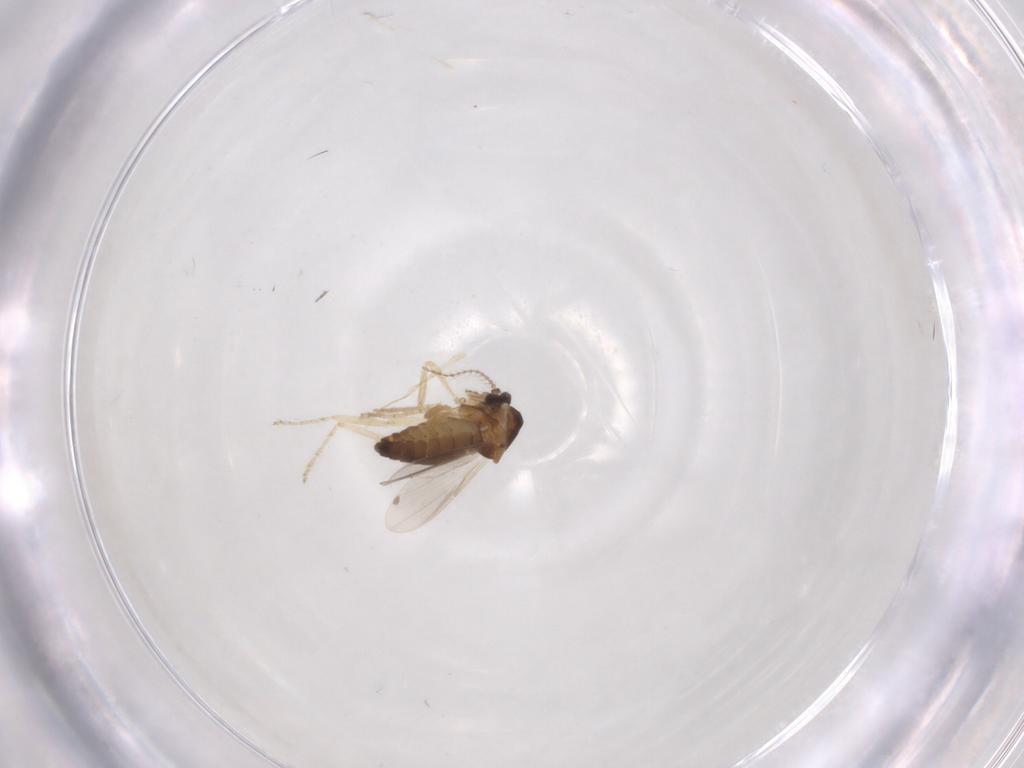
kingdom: Animalia
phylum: Arthropoda
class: Insecta
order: Diptera
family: Ceratopogonidae
